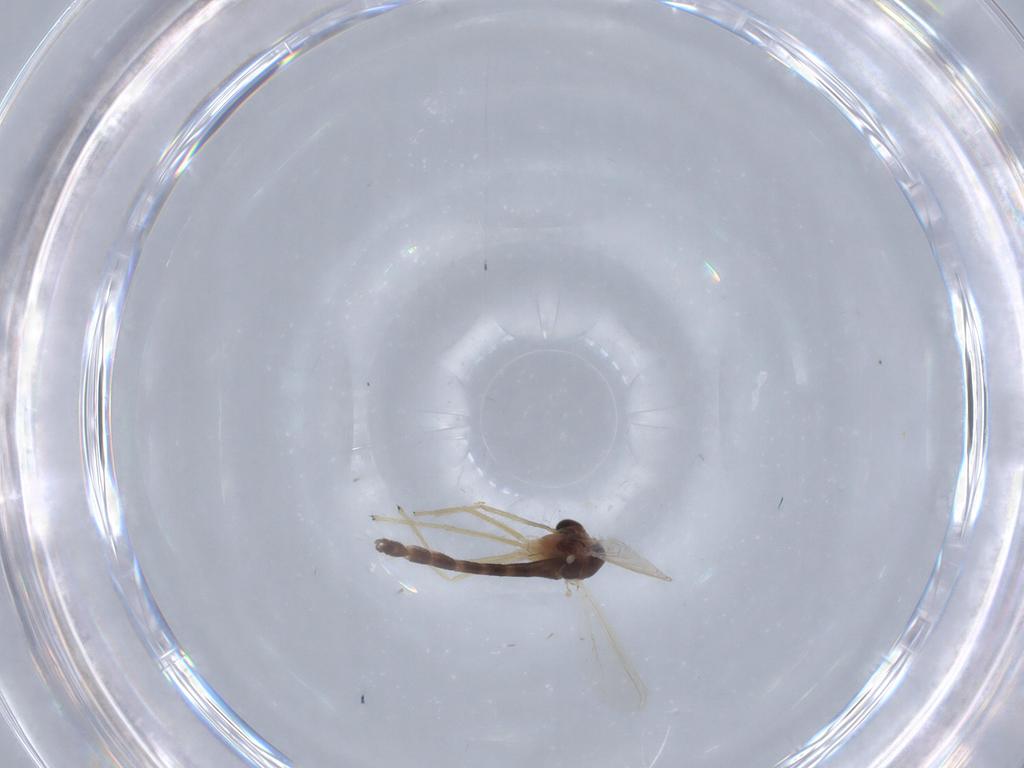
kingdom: Animalia
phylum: Arthropoda
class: Insecta
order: Diptera
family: Chironomidae
